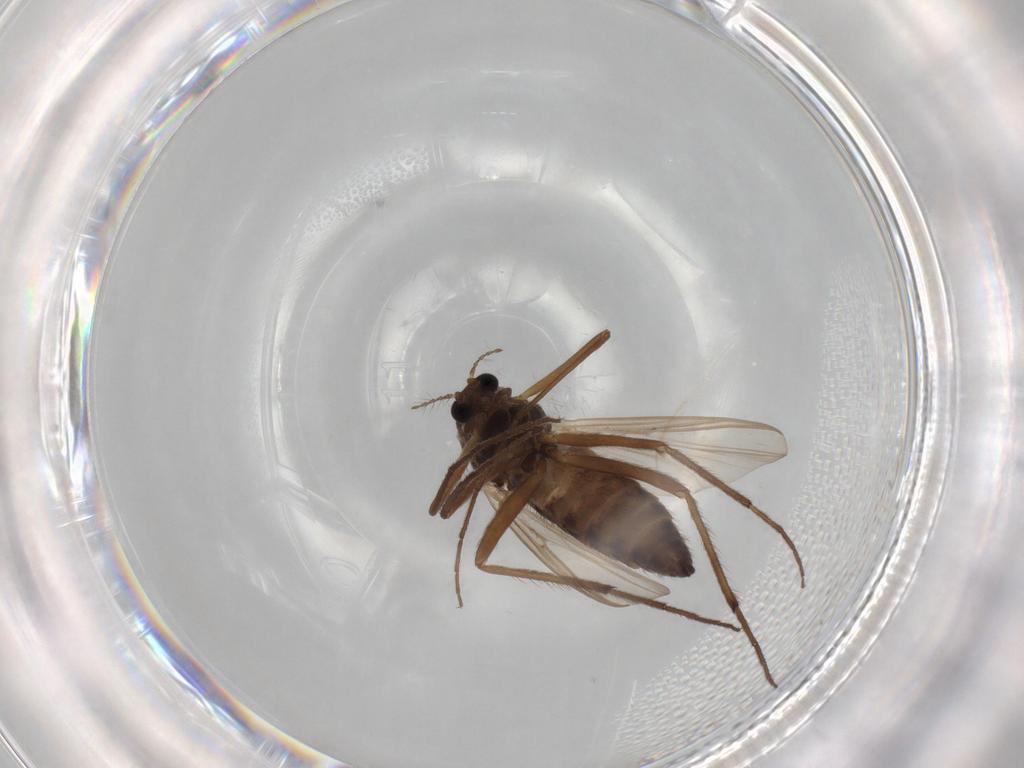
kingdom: Animalia
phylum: Arthropoda
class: Insecta
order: Diptera
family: Chironomidae
